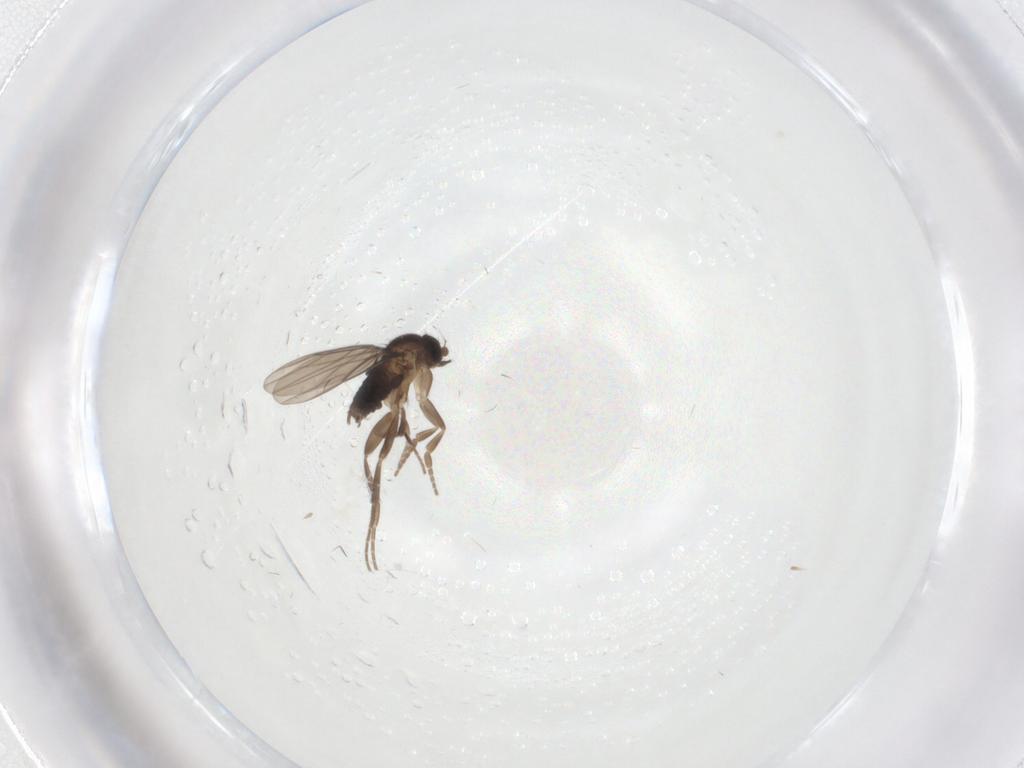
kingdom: Animalia
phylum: Arthropoda
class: Insecta
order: Diptera
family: Phoridae
